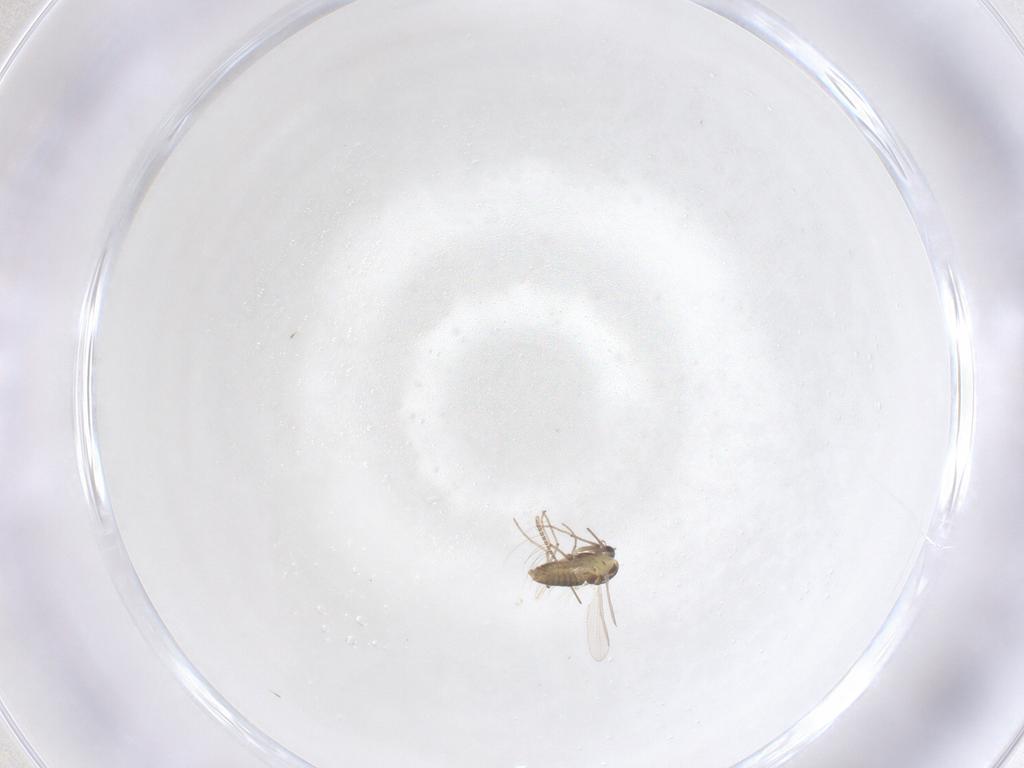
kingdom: Animalia
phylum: Arthropoda
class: Insecta
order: Diptera
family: Chironomidae
